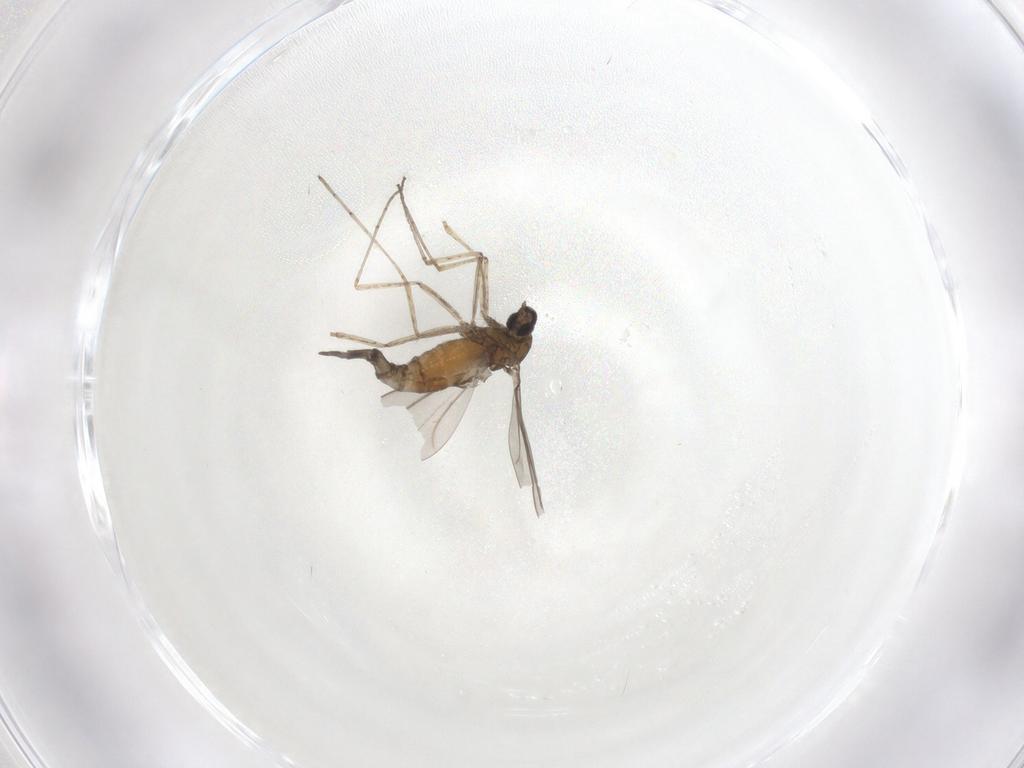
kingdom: Animalia
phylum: Arthropoda
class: Insecta
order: Diptera
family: Cecidomyiidae
